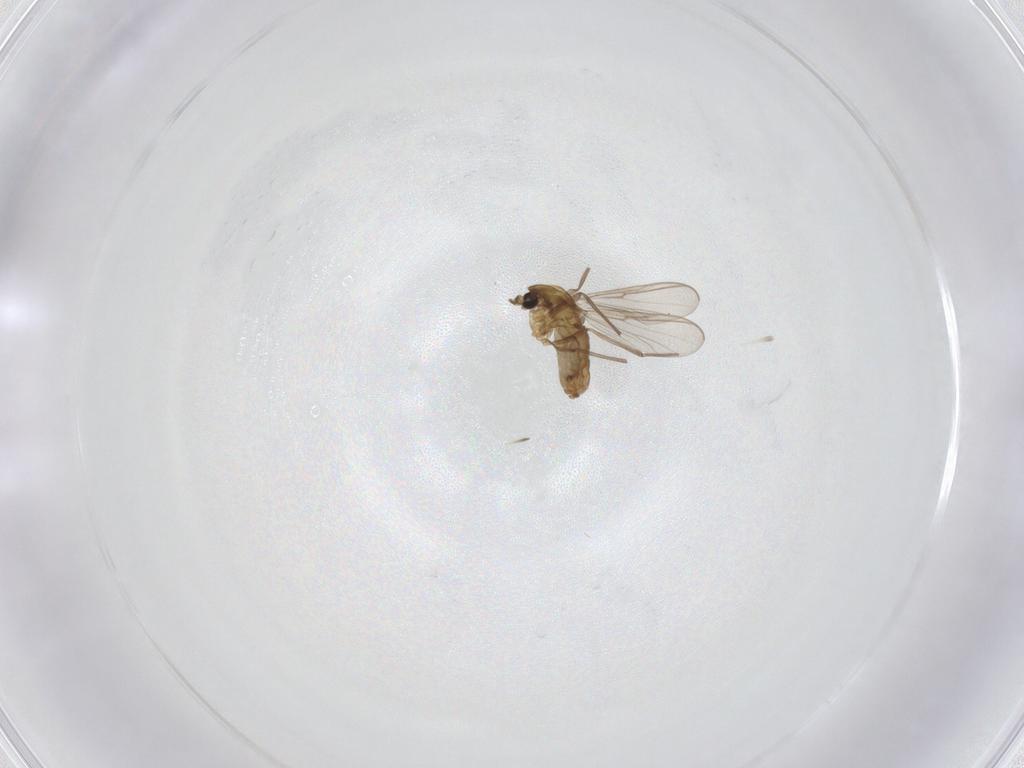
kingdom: Animalia
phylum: Arthropoda
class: Insecta
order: Diptera
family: Chironomidae
